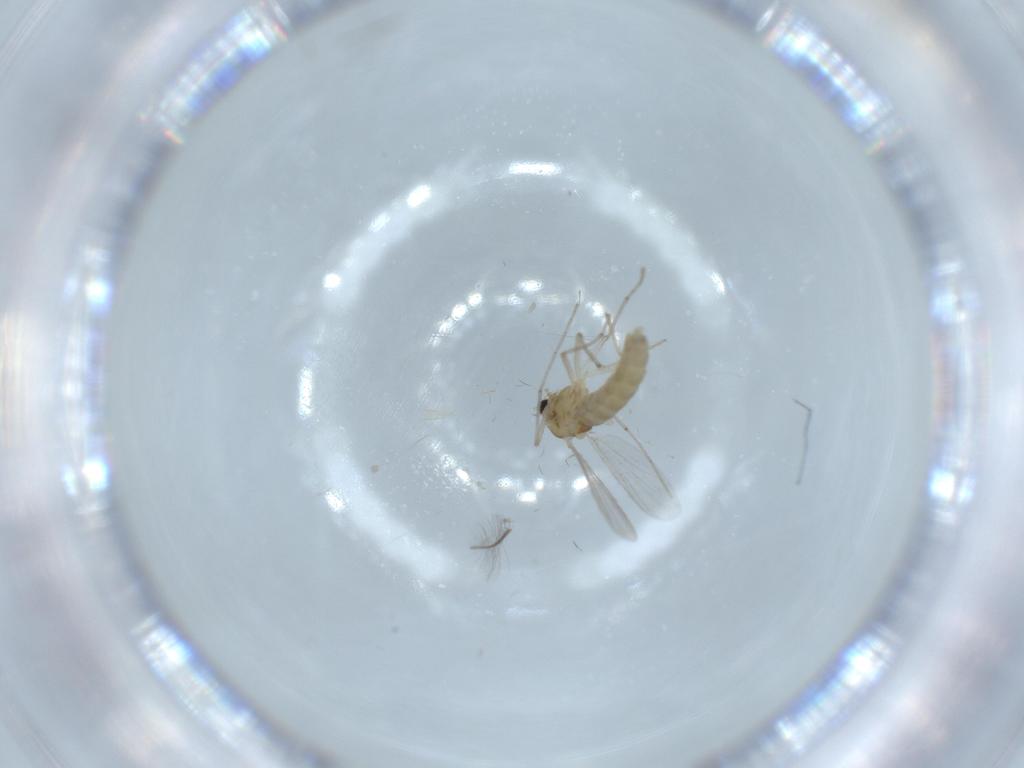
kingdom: Animalia
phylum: Arthropoda
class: Insecta
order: Diptera
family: Chironomidae
